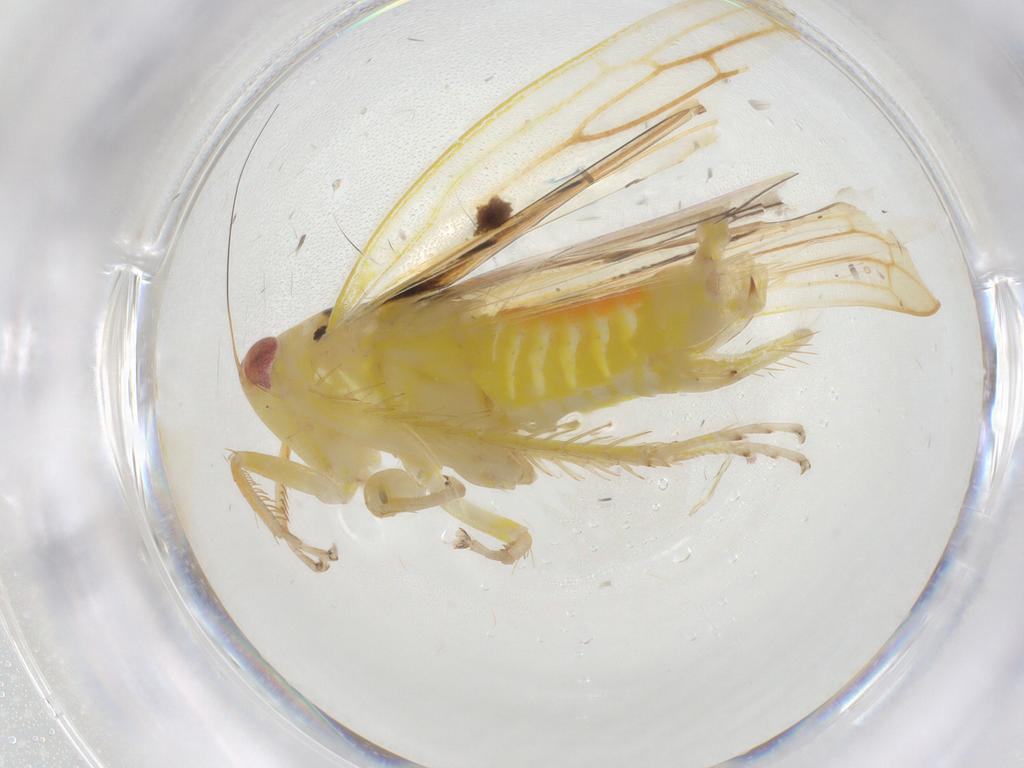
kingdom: Animalia
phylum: Arthropoda
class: Insecta
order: Hemiptera
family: Cicadellidae
